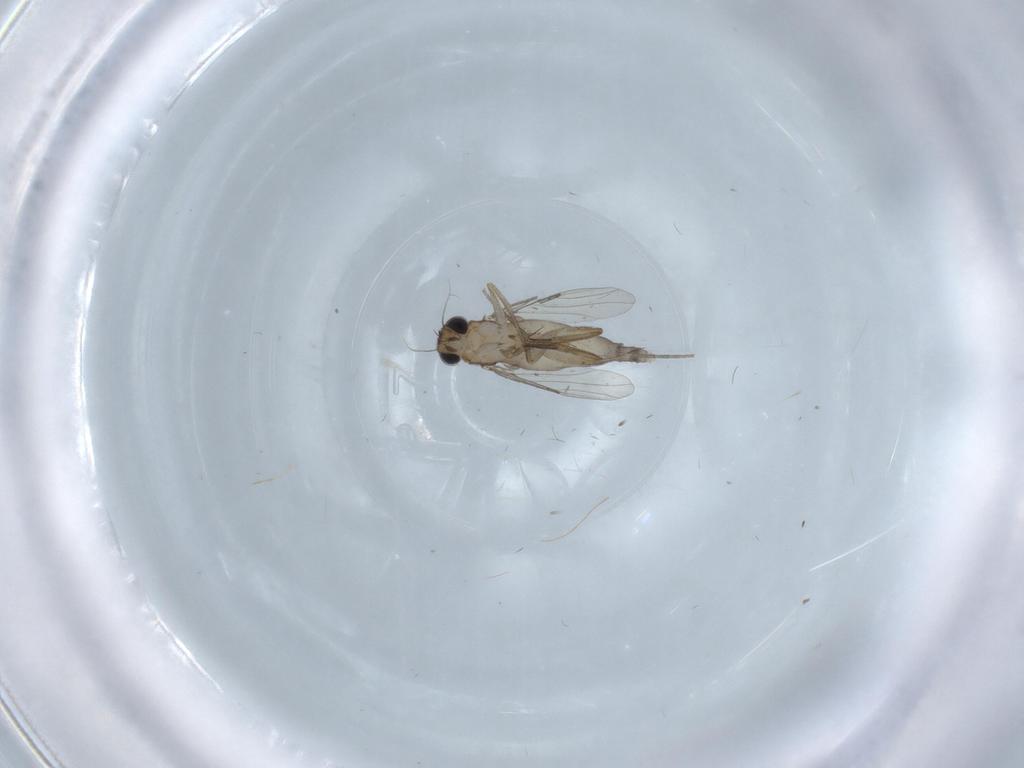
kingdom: Animalia
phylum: Arthropoda
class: Insecta
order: Diptera
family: Phoridae
